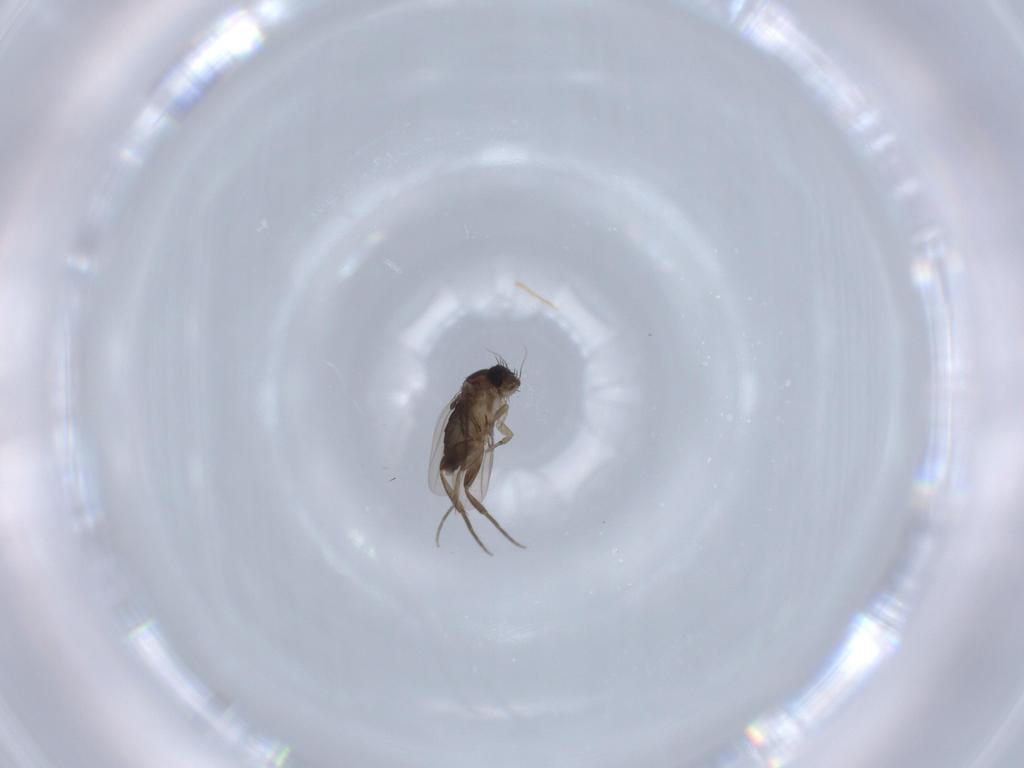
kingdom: Animalia
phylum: Arthropoda
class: Insecta
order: Diptera
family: Phoridae
